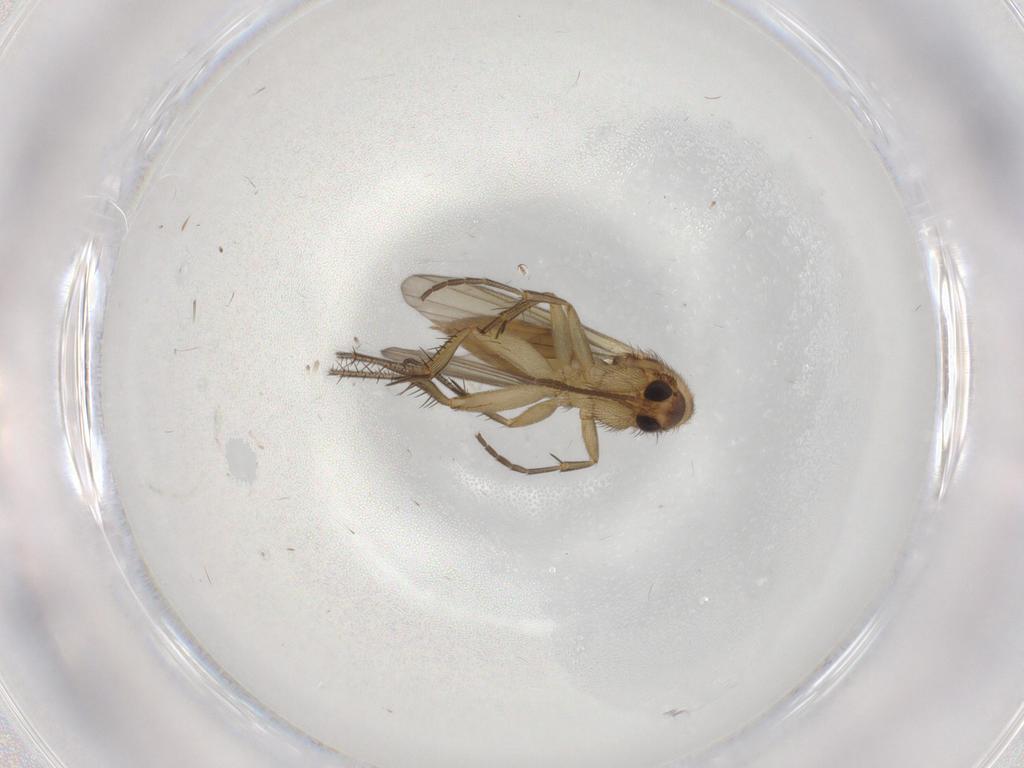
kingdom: Animalia
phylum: Arthropoda
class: Insecta
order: Diptera
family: Mycetophilidae
